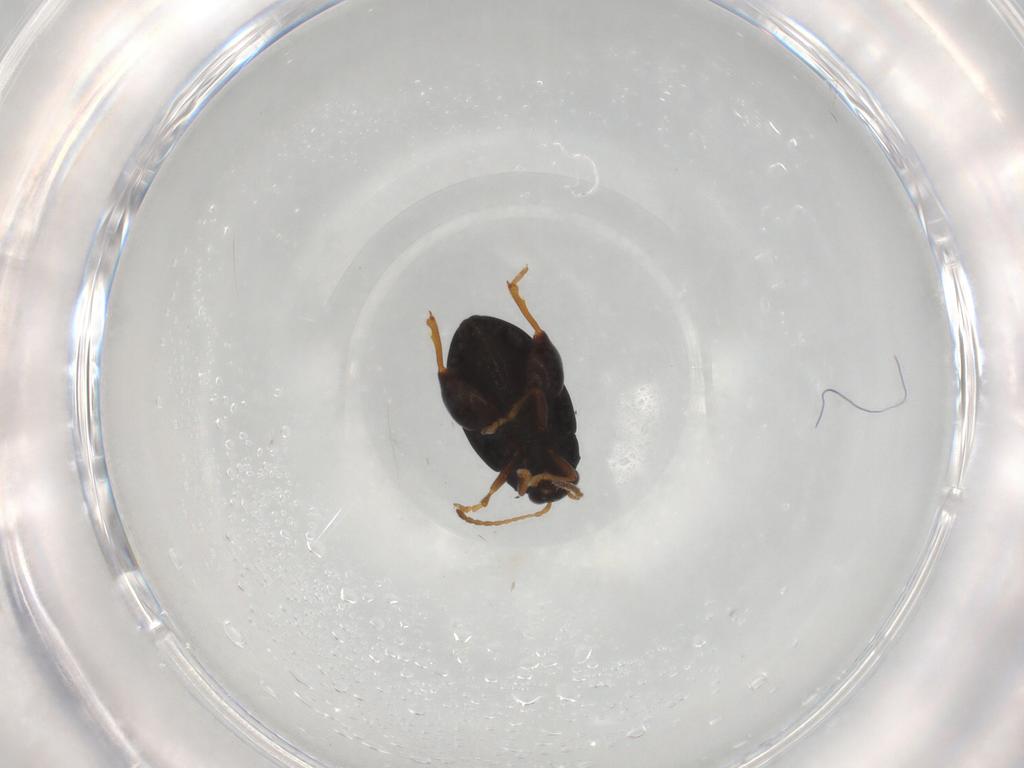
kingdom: Animalia
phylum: Arthropoda
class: Insecta
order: Coleoptera
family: Chrysomelidae
